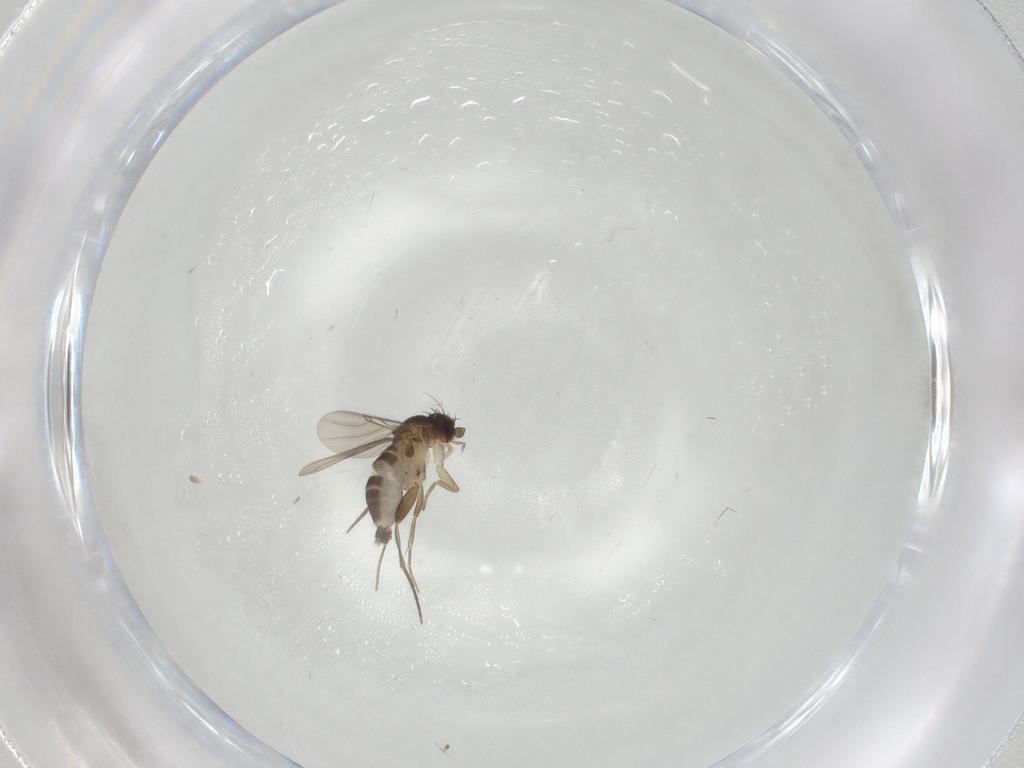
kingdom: Animalia
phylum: Arthropoda
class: Insecta
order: Diptera
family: Phoridae
